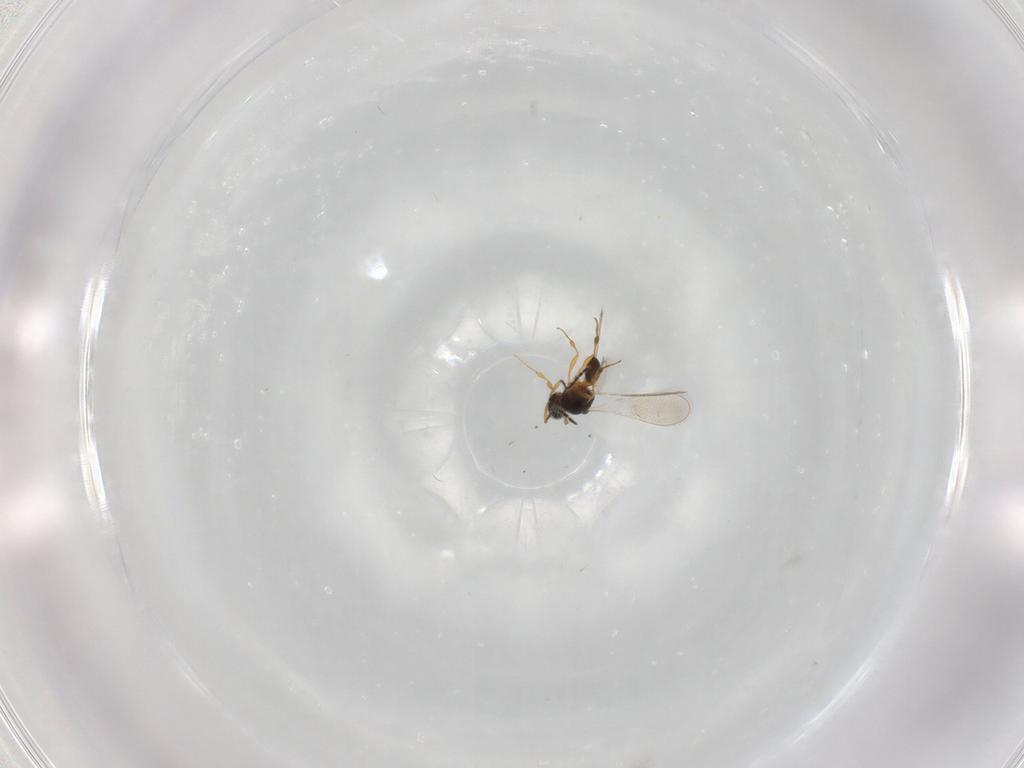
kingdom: Animalia
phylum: Arthropoda
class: Insecta
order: Hymenoptera
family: Platygastridae
